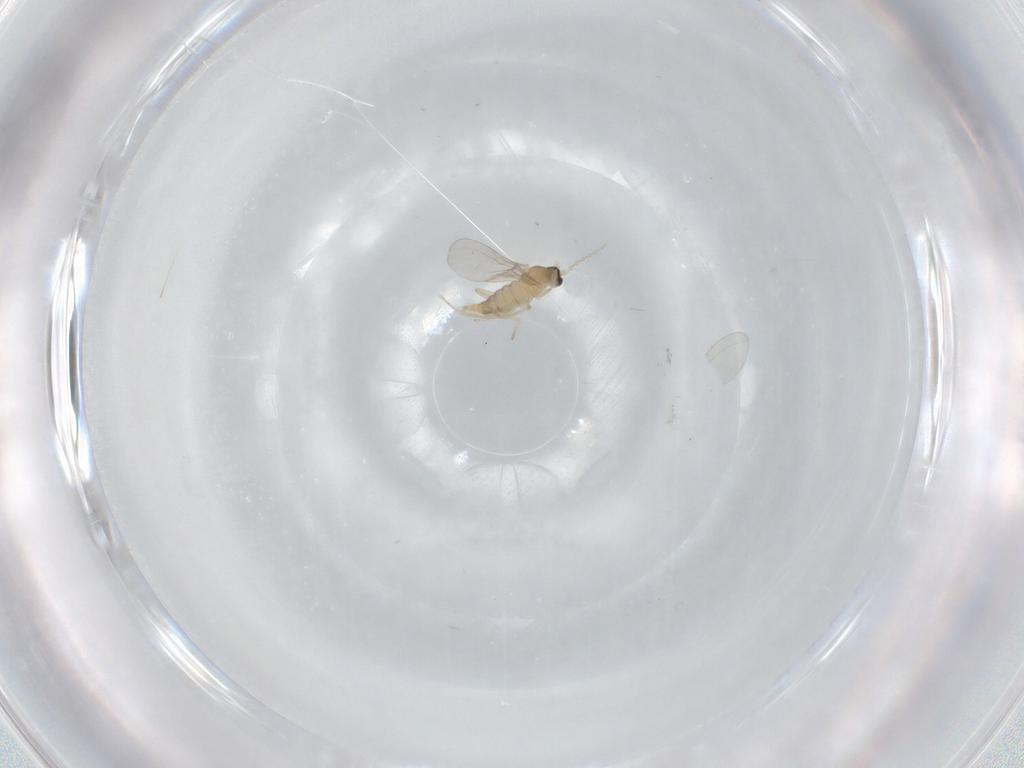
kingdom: Animalia
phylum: Arthropoda
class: Insecta
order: Diptera
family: Cecidomyiidae
